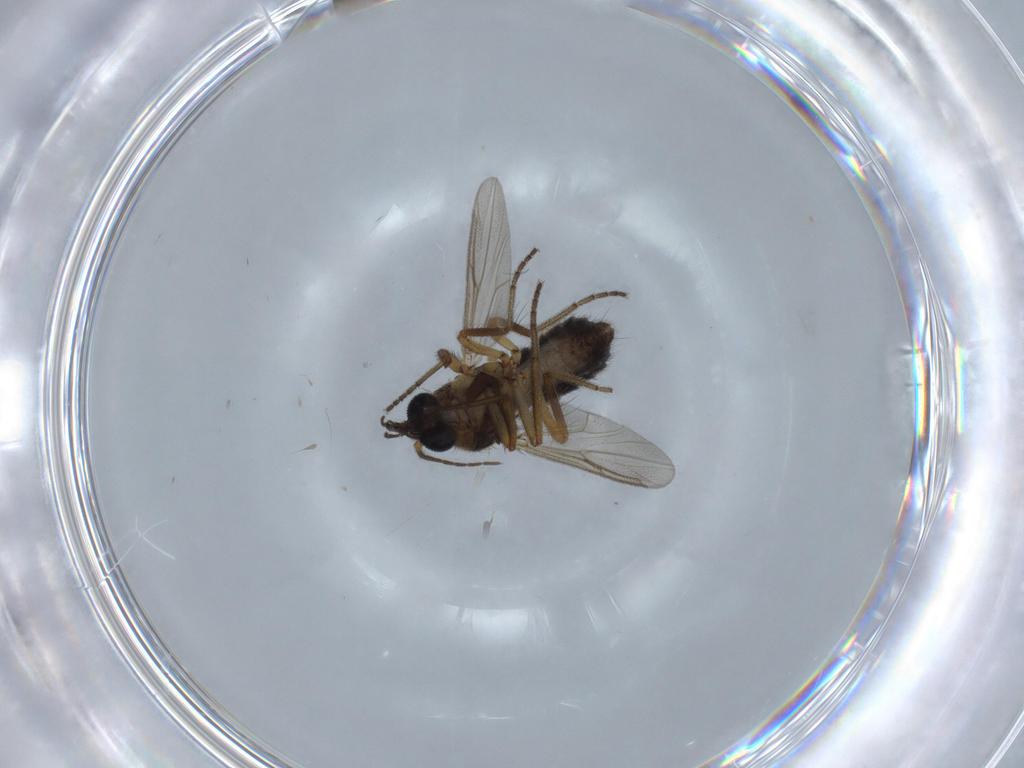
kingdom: Animalia
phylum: Arthropoda
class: Insecta
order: Diptera
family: Ceratopogonidae
